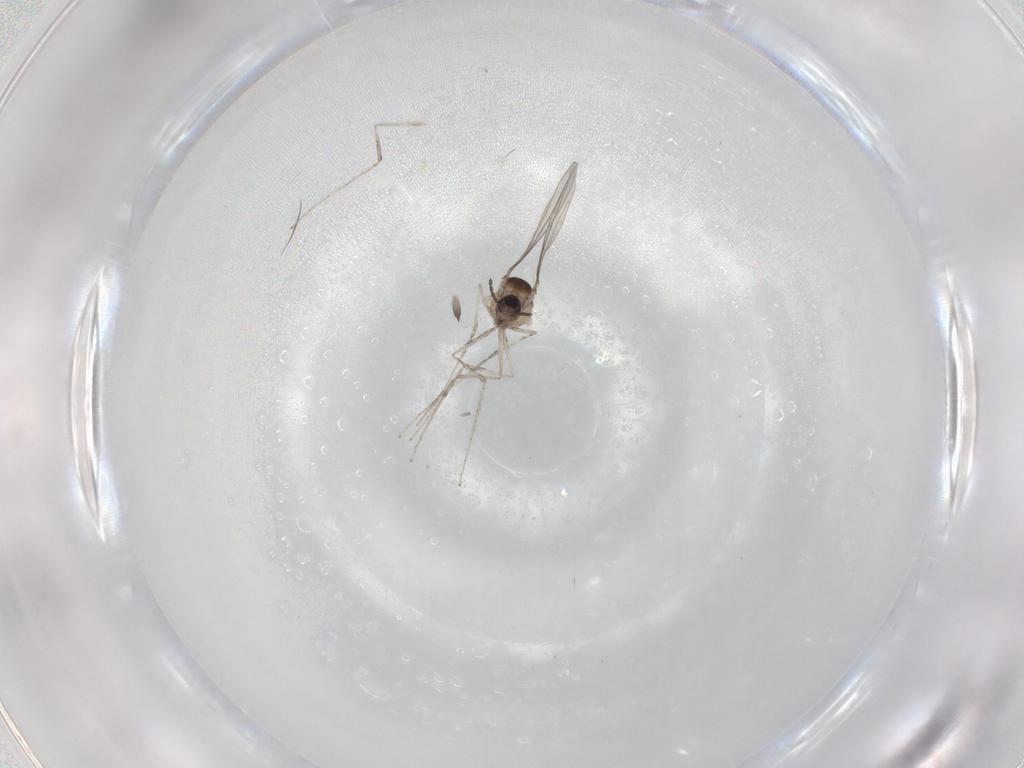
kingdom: Animalia
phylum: Arthropoda
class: Insecta
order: Diptera
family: Cecidomyiidae
